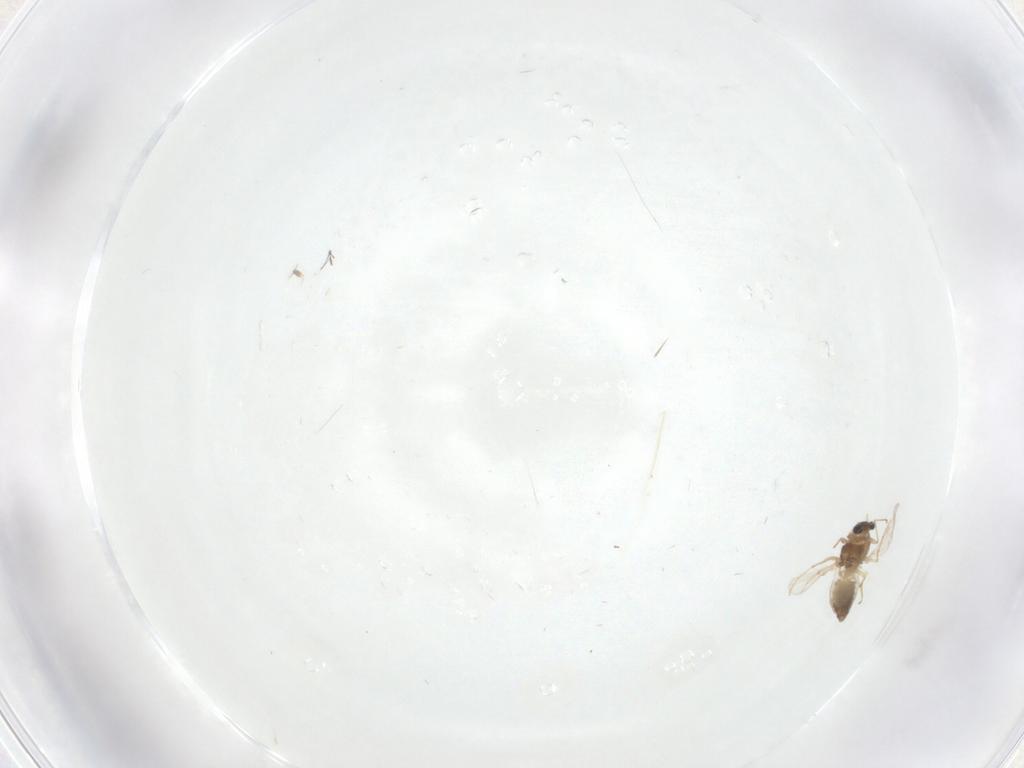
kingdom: Animalia
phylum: Arthropoda
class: Insecta
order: Diptera
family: Chironomidae
